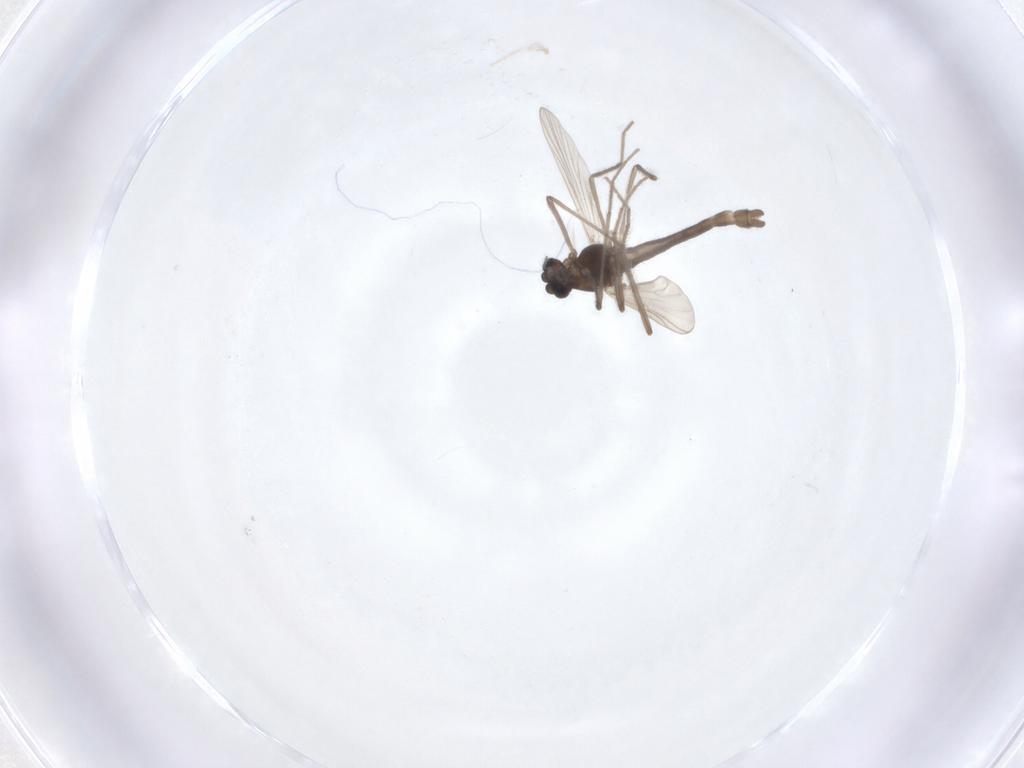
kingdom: Animalia
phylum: Arthropoda
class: Insecta
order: Diptera
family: Chironomidae
